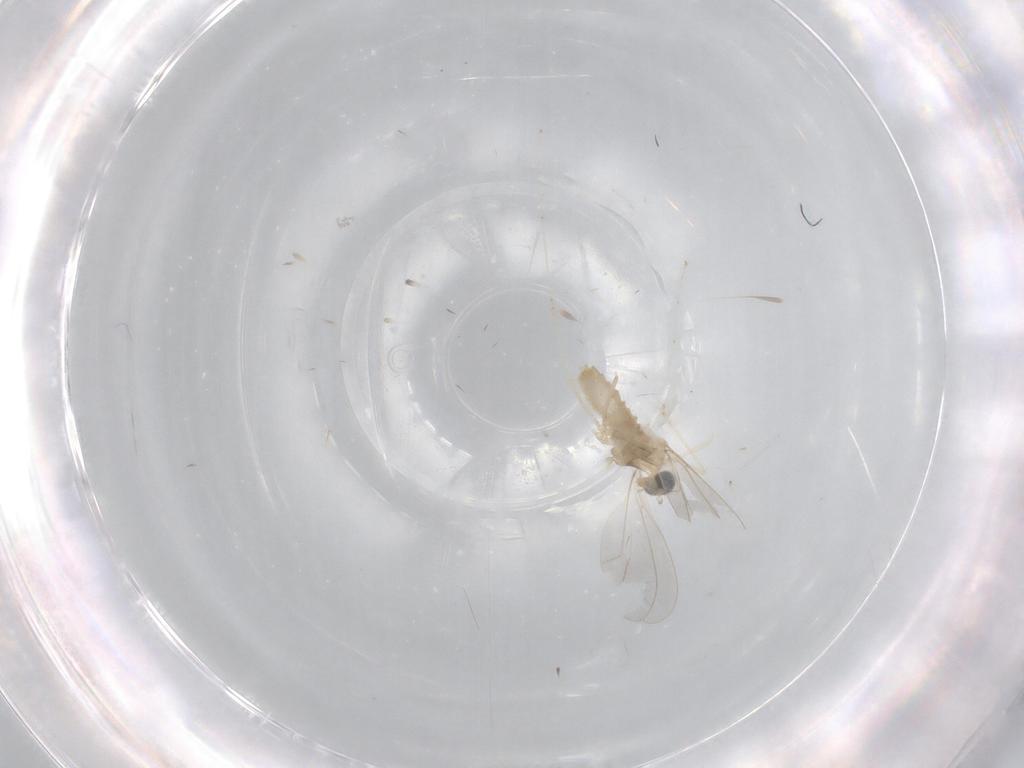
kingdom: Animalia
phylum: Arthropoda
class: Insecta
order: Diptera
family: Cecidomyiidae
